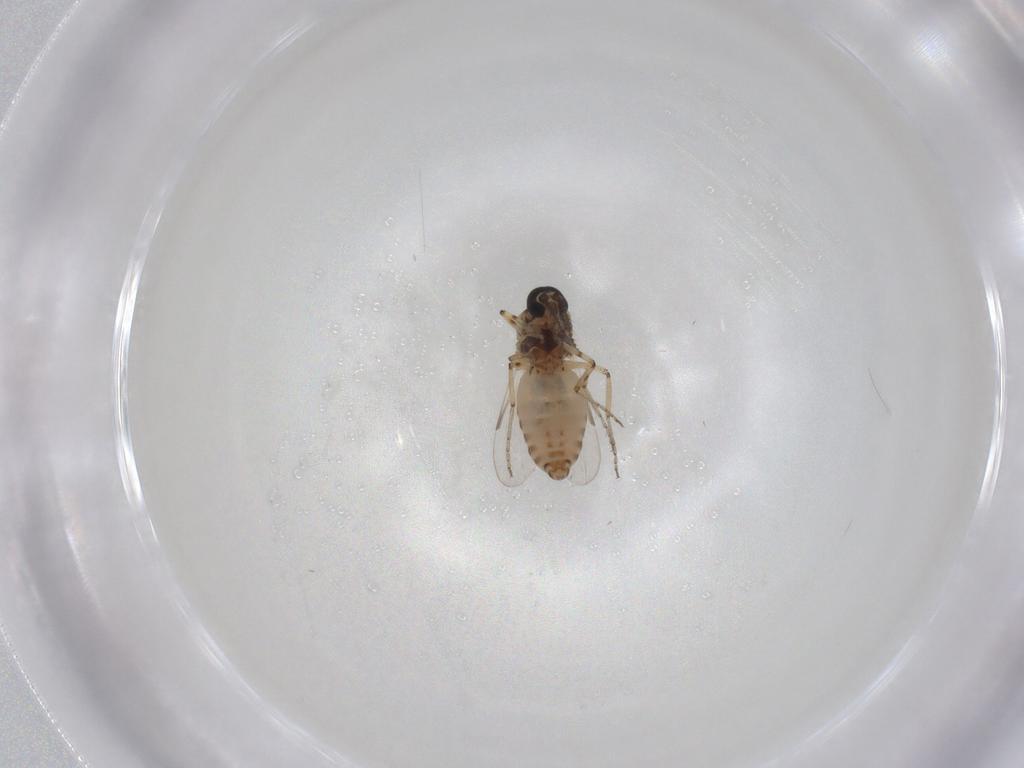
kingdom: Animalia
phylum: Arthropoda
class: Insecta
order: Diptera
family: Ceratopogonidae
